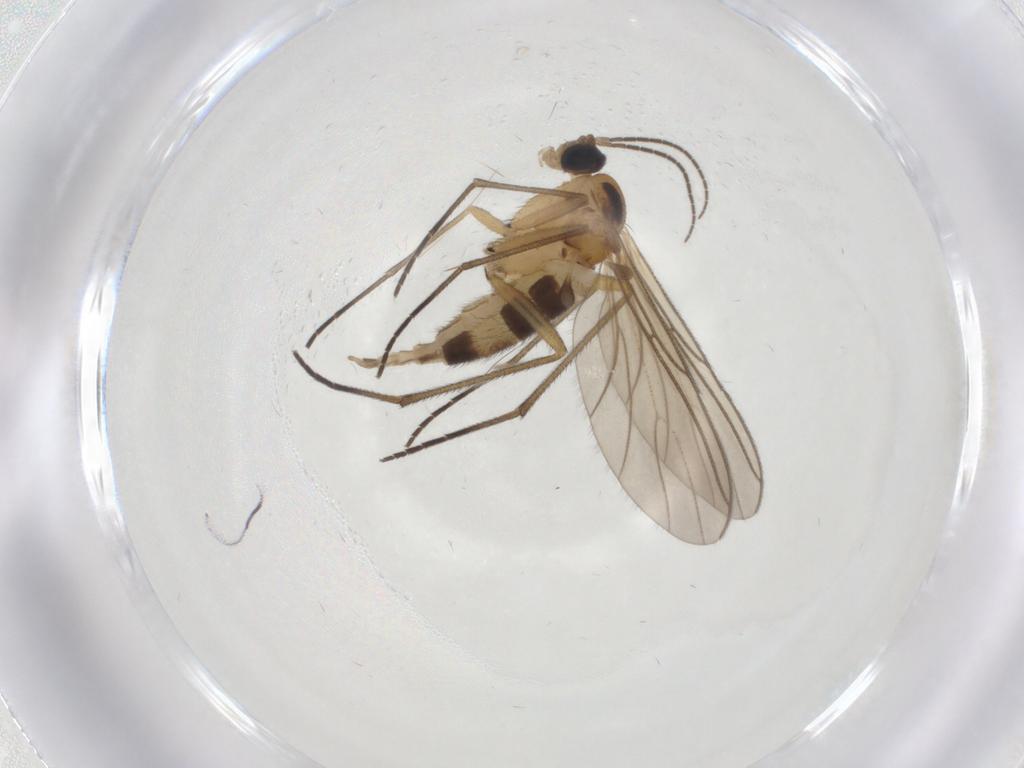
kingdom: Animalia
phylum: Arthropoda
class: Insecta
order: Diptera
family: Sciaridae
